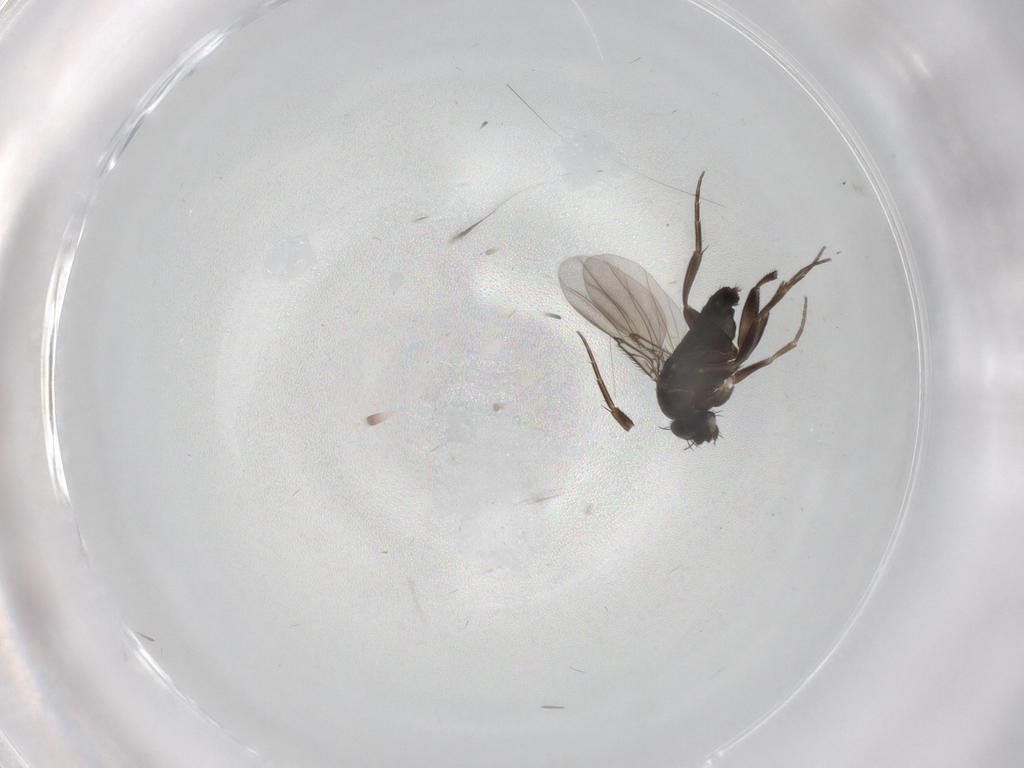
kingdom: Animalia
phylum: Arthropoda
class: Insecta
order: Diptera
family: Phoridae
